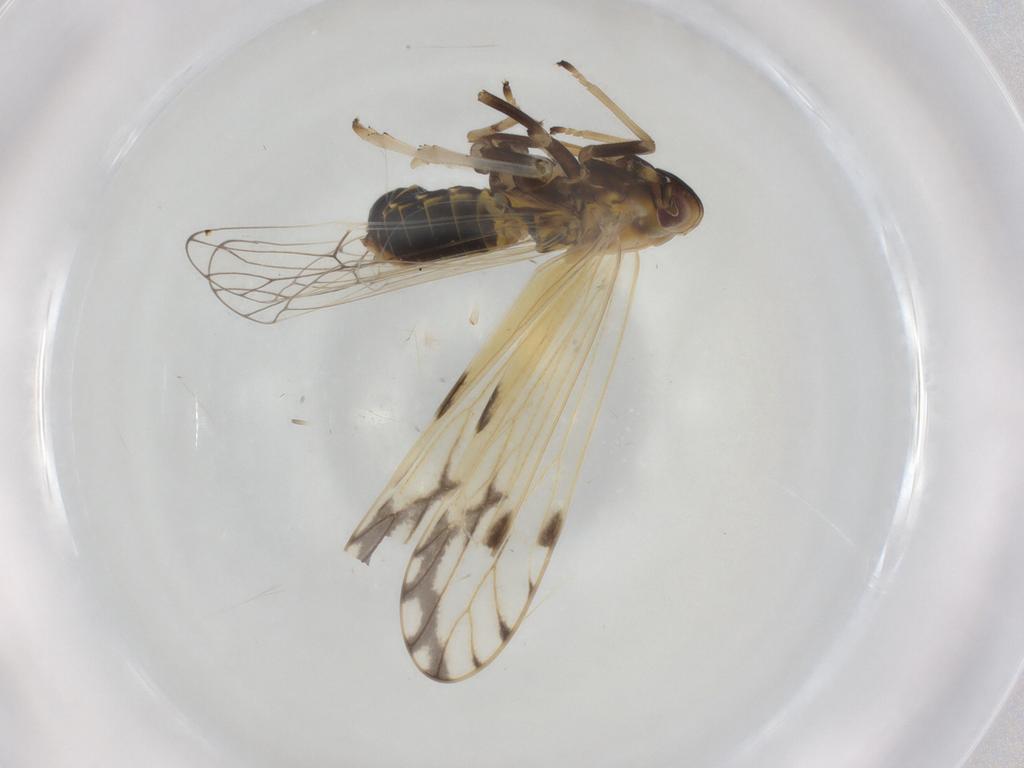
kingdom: Animalia
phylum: Arthropoda
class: Insecta
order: Hemiptera
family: Delphacidae
